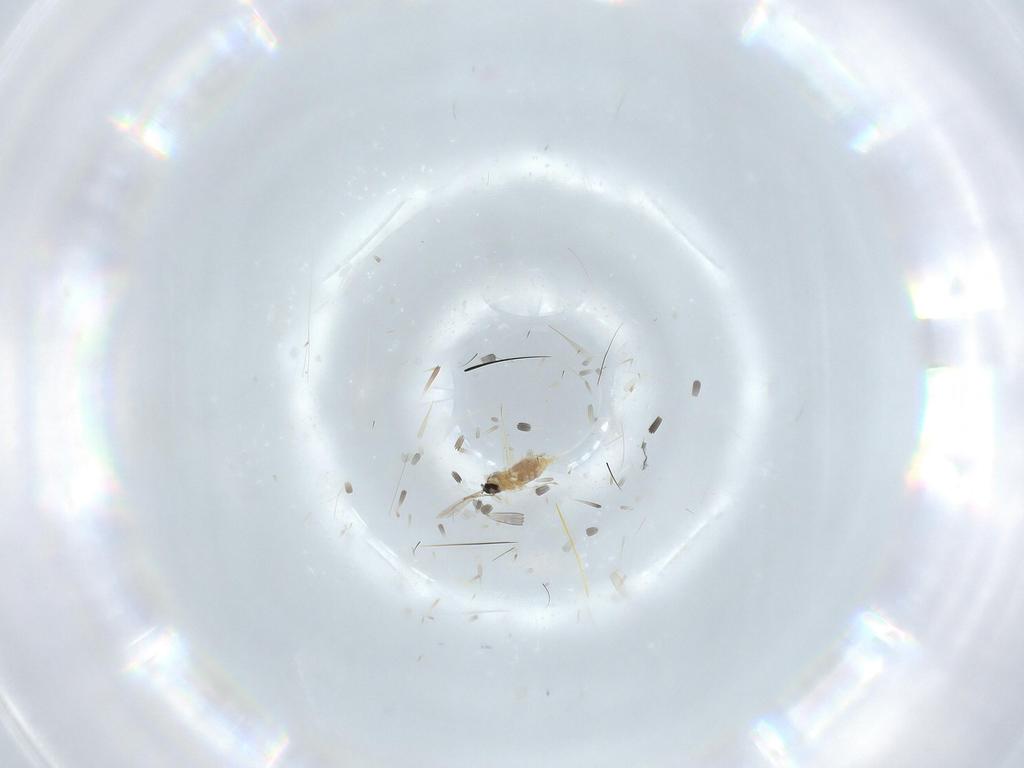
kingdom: Animalia
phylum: Arthropoda
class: Insecta
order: Diptera
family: Cecidomyiidae
